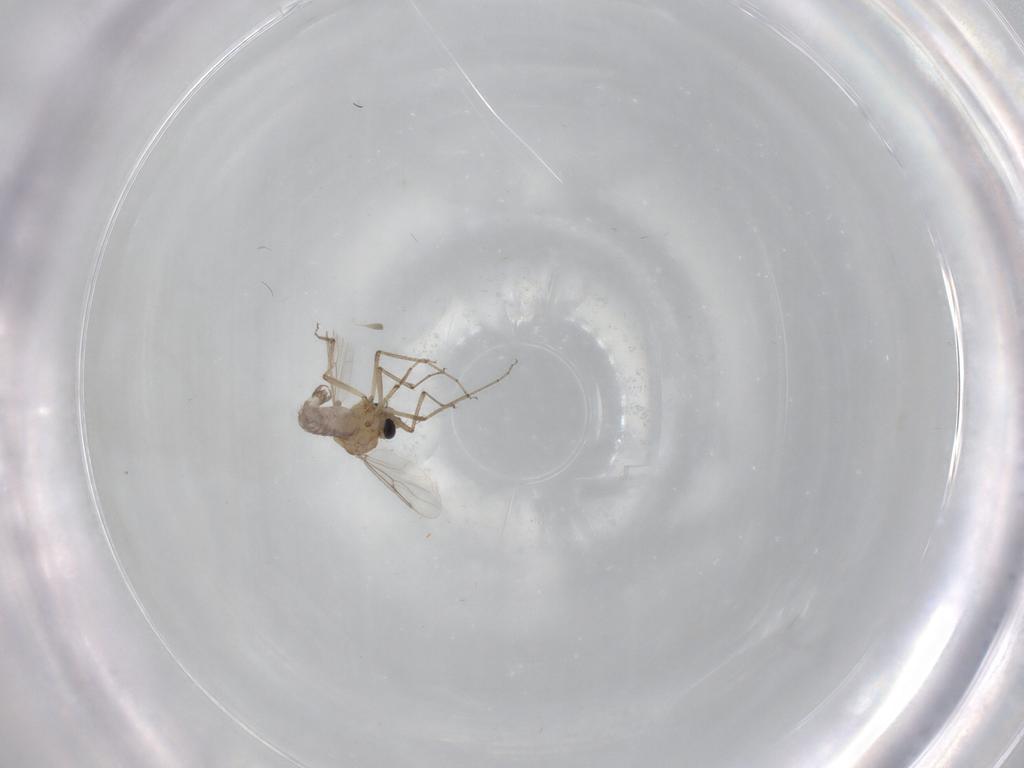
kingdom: Animalia
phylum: Arthropoda
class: Insecta
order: Diptera
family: Ceratopogonidae
